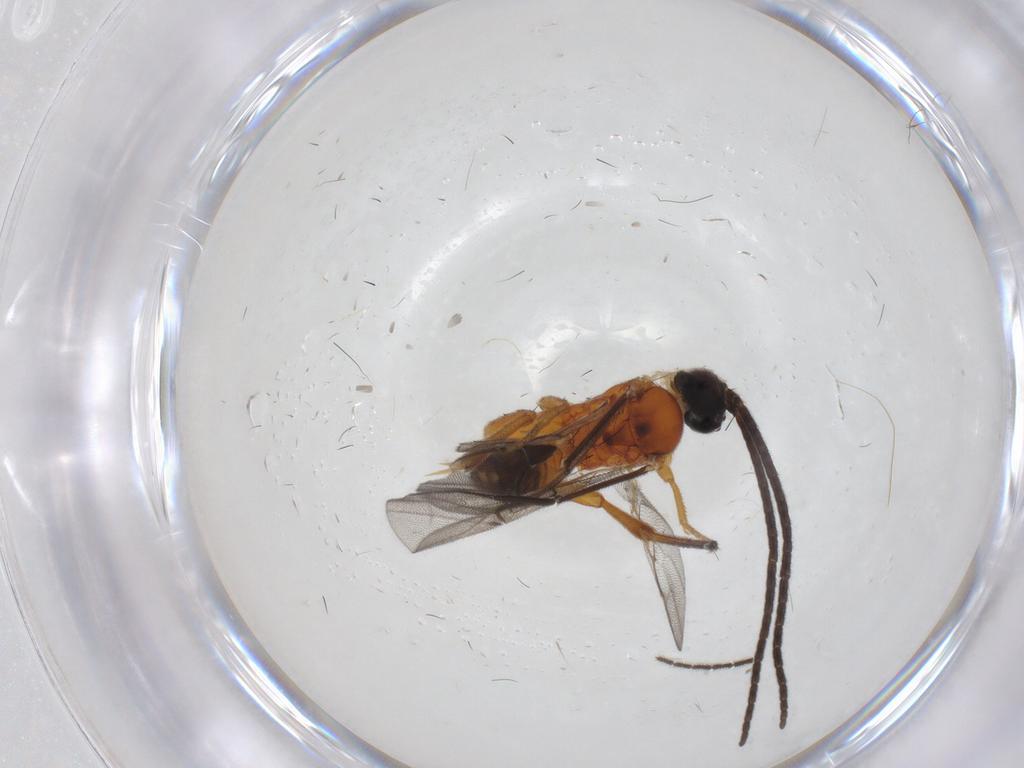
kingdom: Animalia
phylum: Arthropoda
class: Insecta
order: Hymenoptera
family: Braconidae
